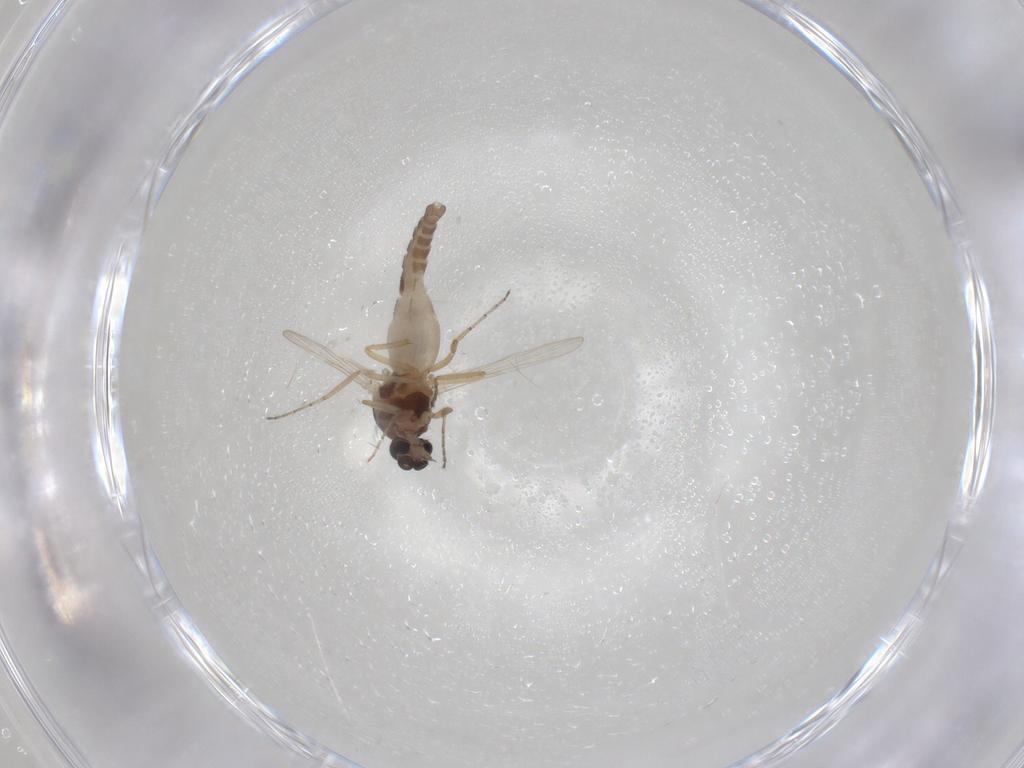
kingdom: Animalia
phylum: Arthropoda
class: Insecta
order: Diptera
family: Ceratopogonidae
